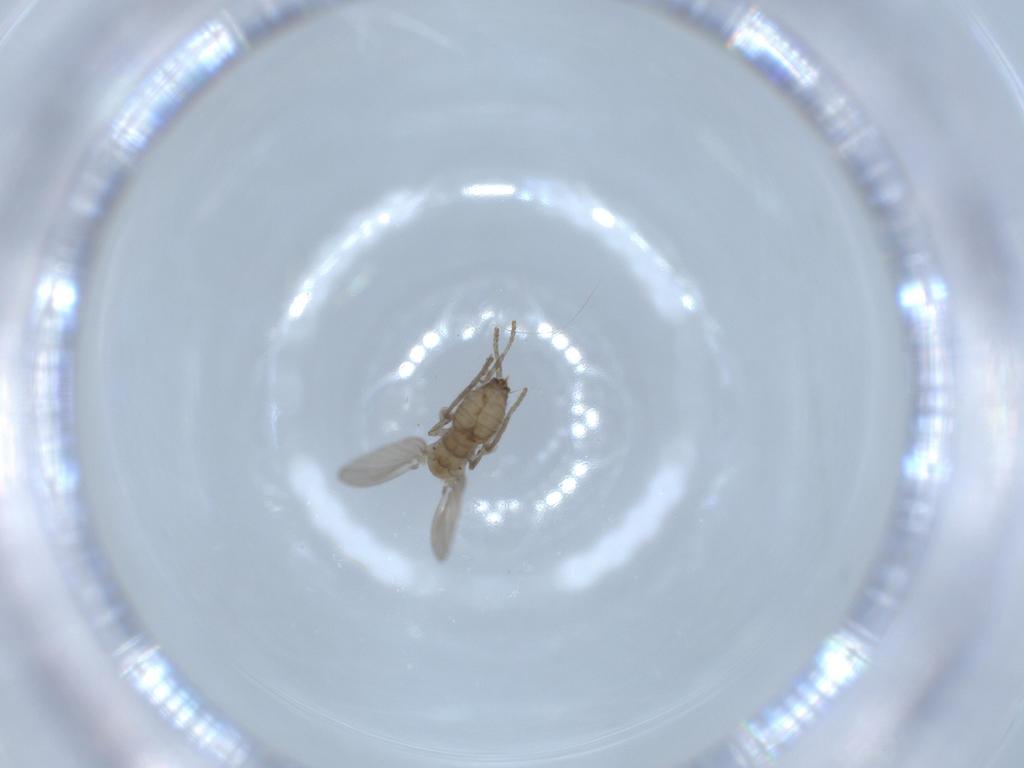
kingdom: Animalia
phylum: Arthropoda
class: Insecta
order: Diptera
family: Psychodidae
